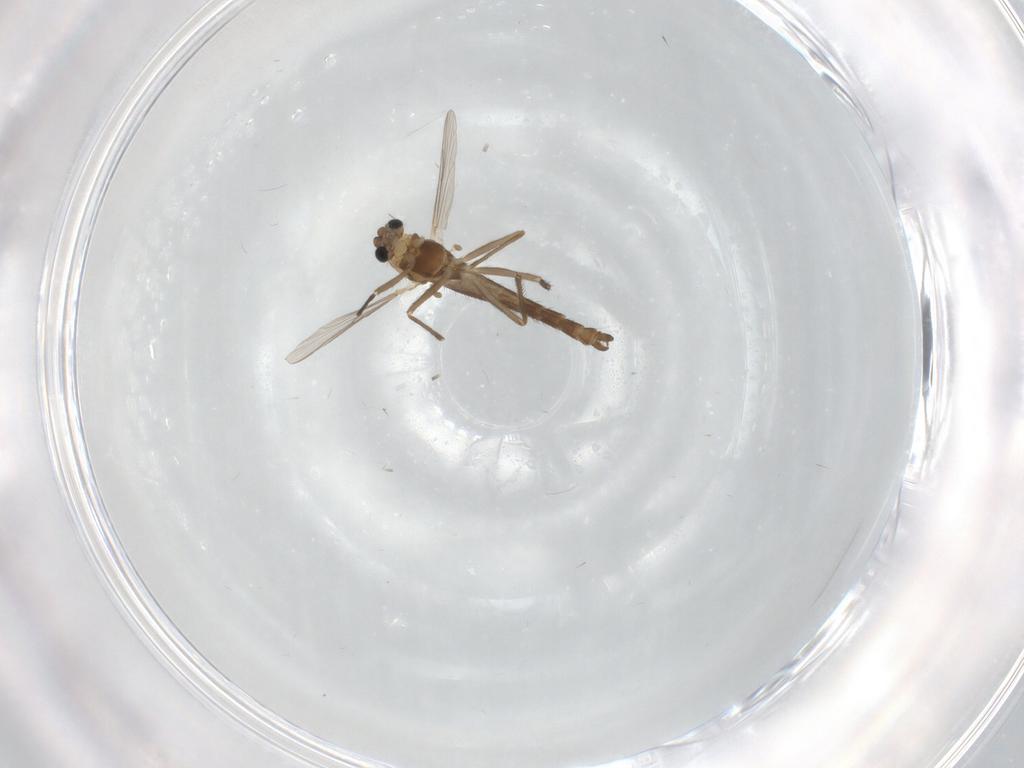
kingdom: Animalia
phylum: Arthropoda
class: Insecta
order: Diptera
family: Chironomidae
